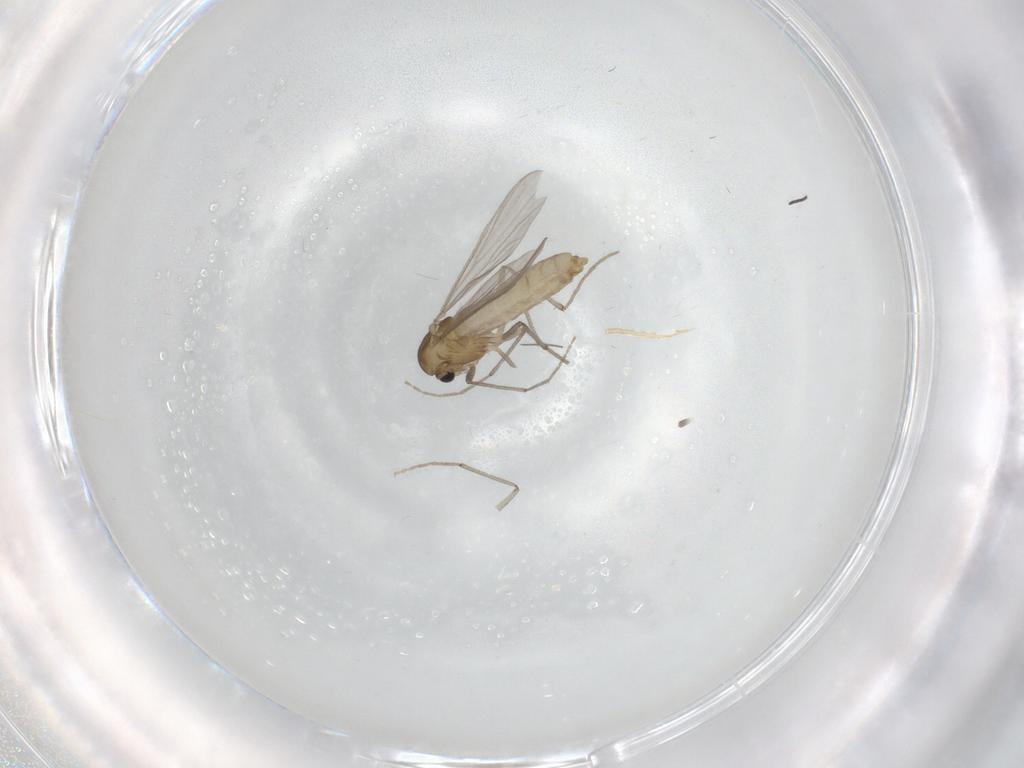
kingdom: Animalia
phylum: Arthropoda
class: Insecta
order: Diptera
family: Chironomidae
